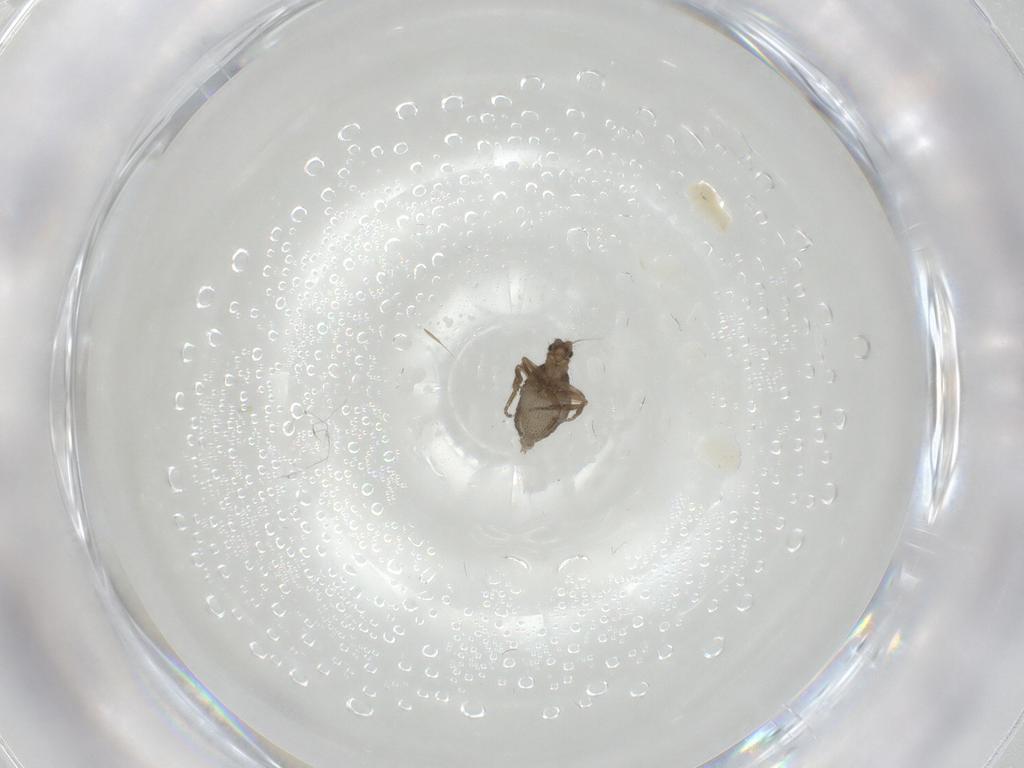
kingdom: Animalia
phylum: Arthropoda
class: Insecta
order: Diptera
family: Phoridae
